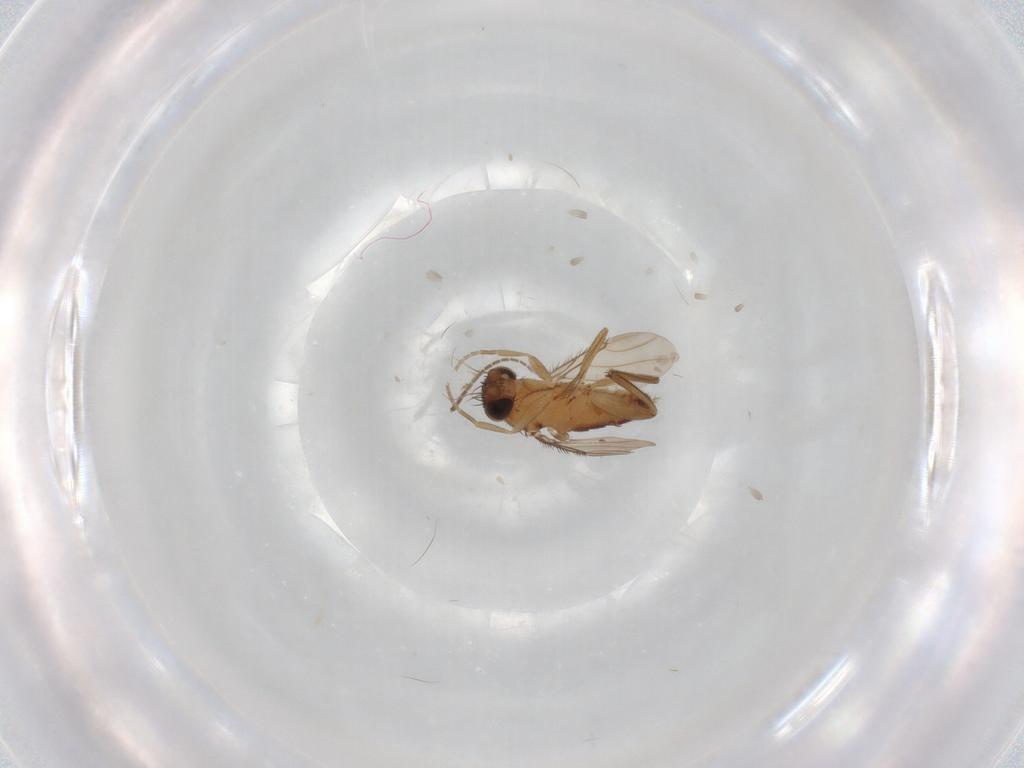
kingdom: Animalia
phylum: Arthropoda
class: Insecta
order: Diptera
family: Phoridae
